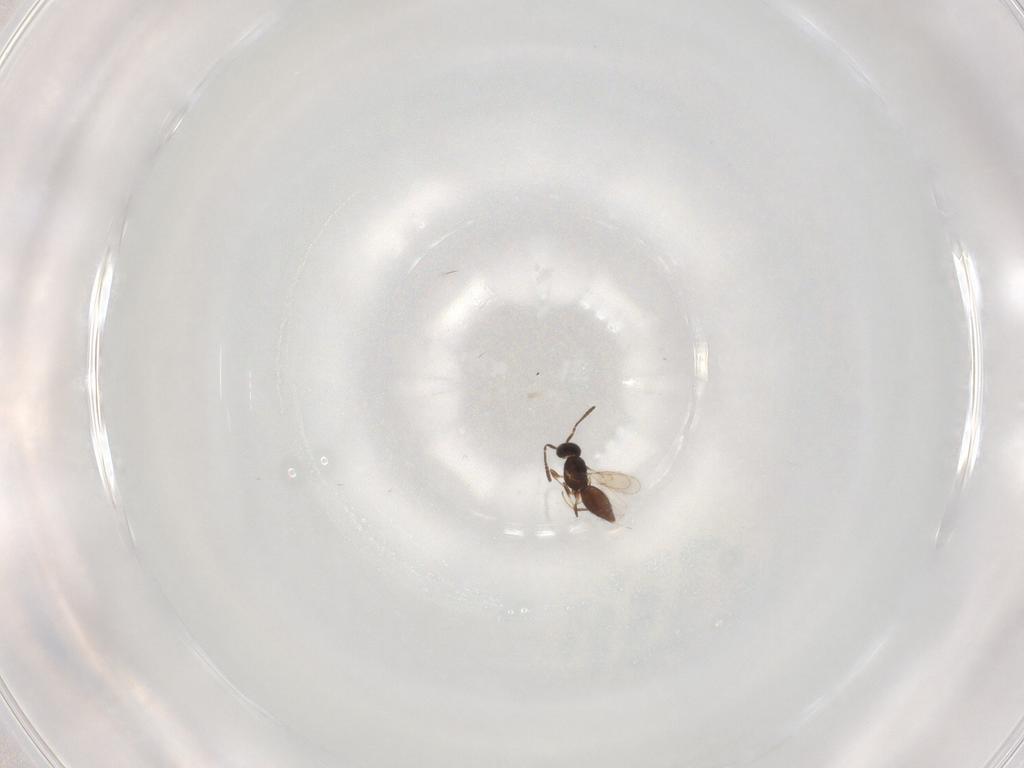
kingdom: Animalia
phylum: Arthropoda
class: Insecta
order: Hymenoptera
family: Scelionidae
